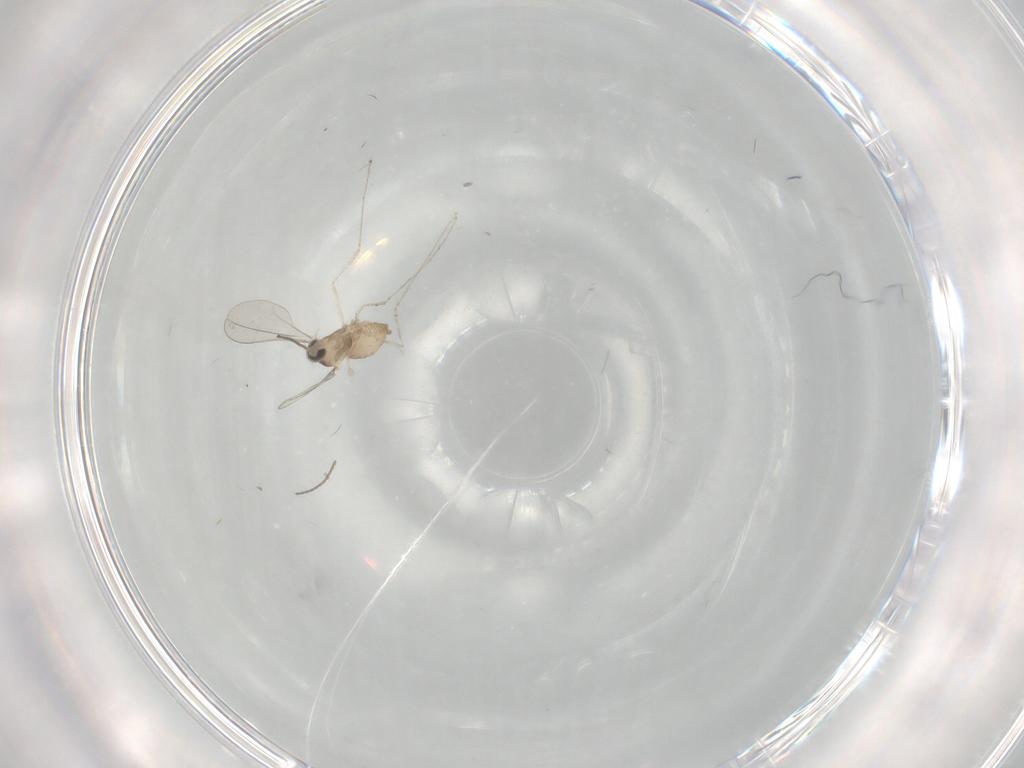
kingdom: Animalia
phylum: Arthropoda
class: Insecta
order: Diptera
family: Cecidomyiidae
